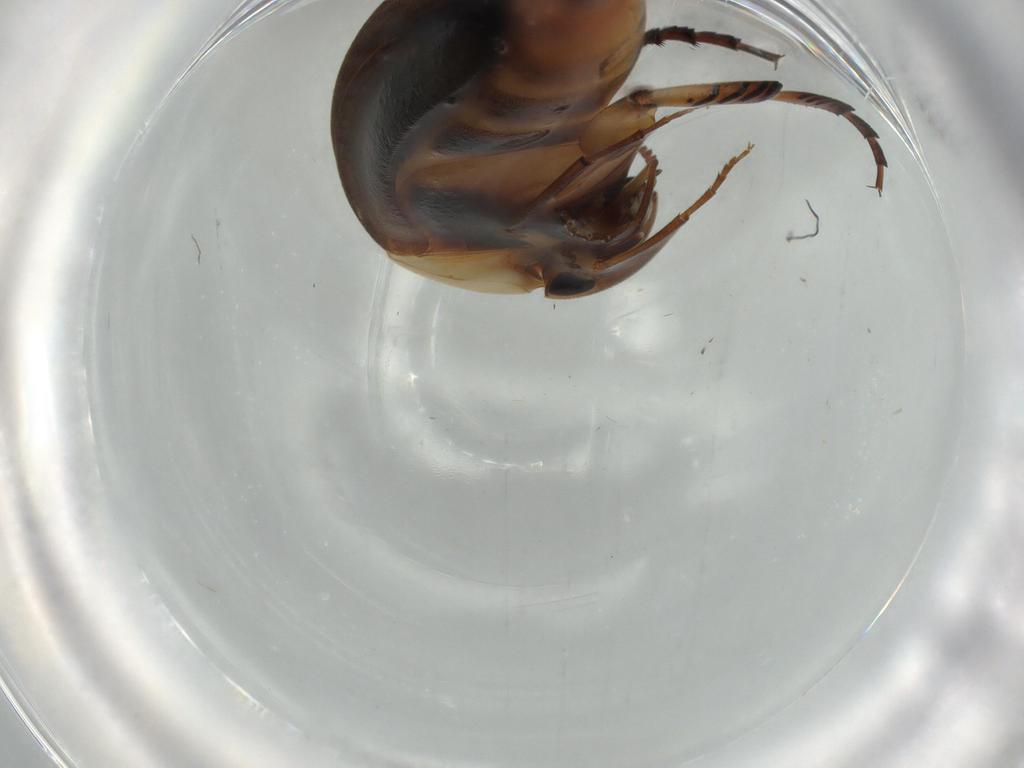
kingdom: Animalia
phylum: Arthropoda
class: Insecta
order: Coleoptera
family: Mordellidae
